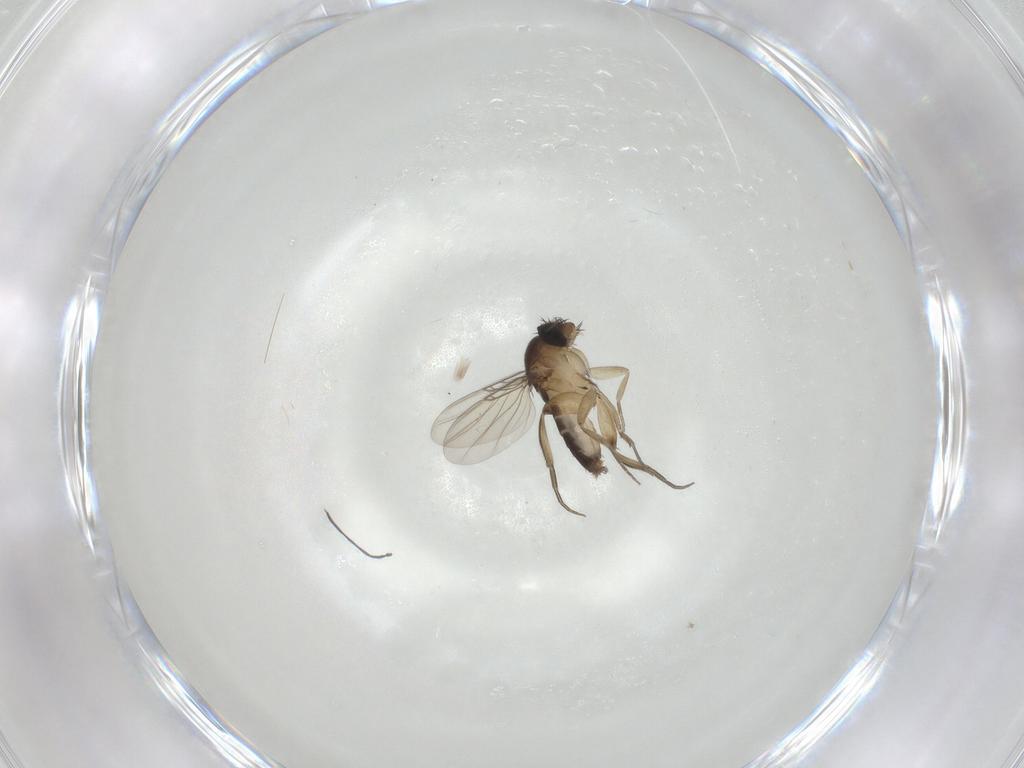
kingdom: Animalia
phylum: Arthropoda
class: Insecta
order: Diptera
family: Phoridae
